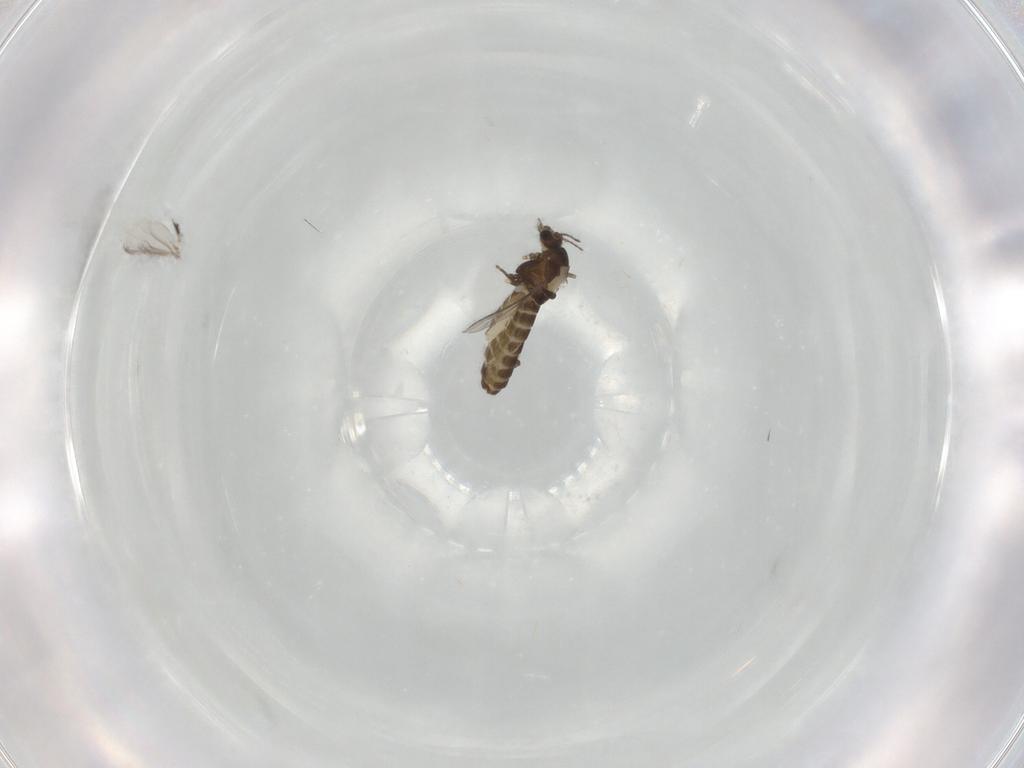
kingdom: Animalia
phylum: Arthropoda
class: Insecta
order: Diptera
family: Chironomidae
